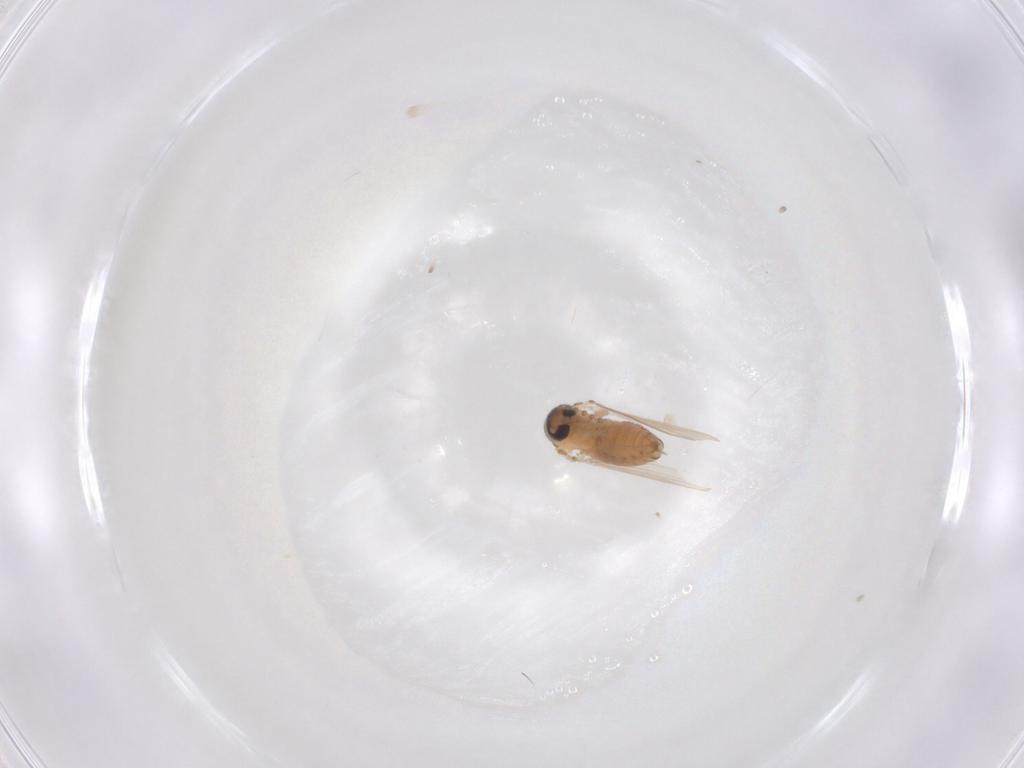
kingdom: Animalia
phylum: Arthropoda
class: Insecta
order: Diptera
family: Psychodidae
